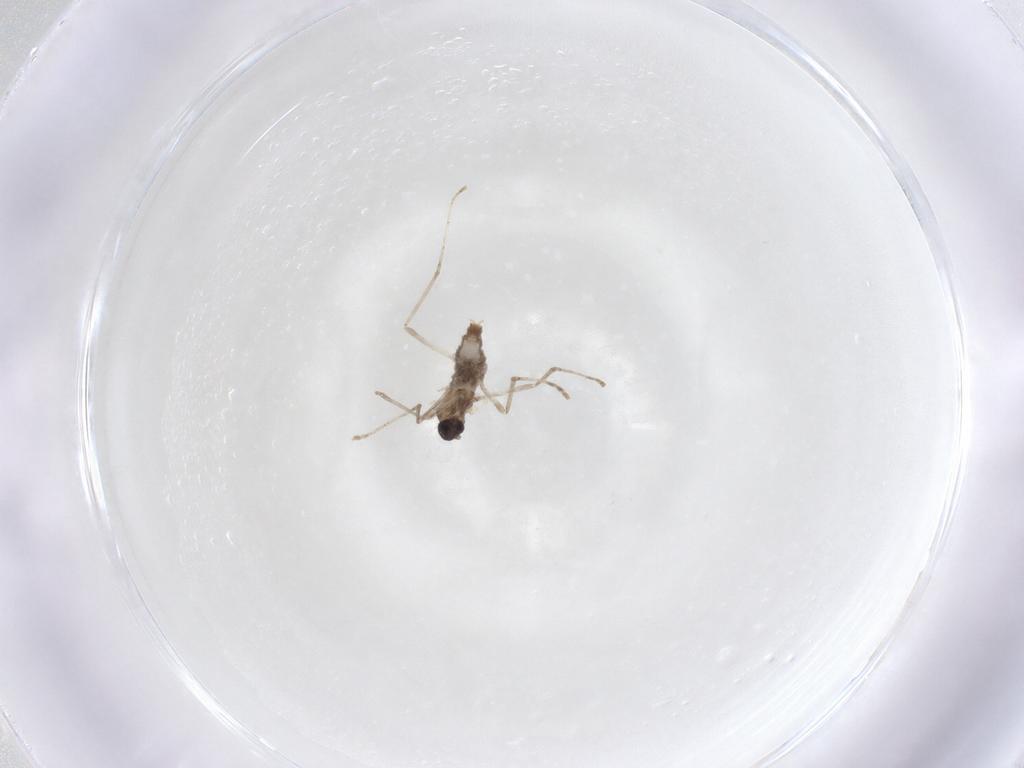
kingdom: Animalia
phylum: Arthropoda
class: Insecta
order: Diptera
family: Cecidomyiidae
